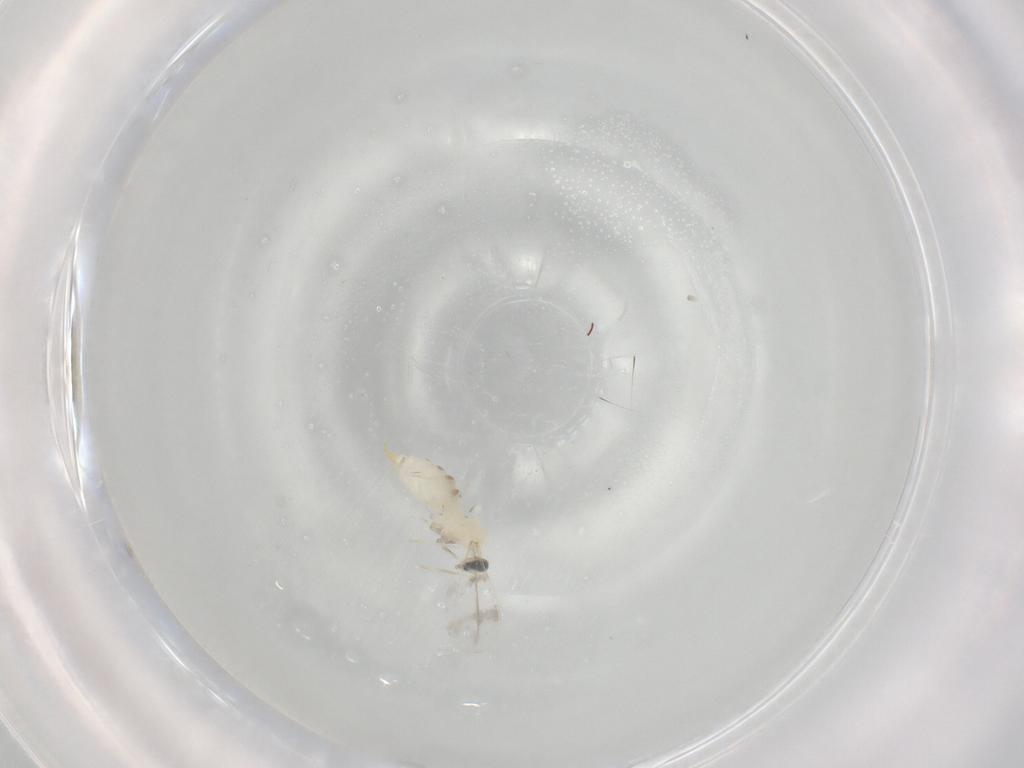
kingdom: Animalia
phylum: Arthropoda
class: Insecta
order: Diptera
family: Cecidomyiidae
